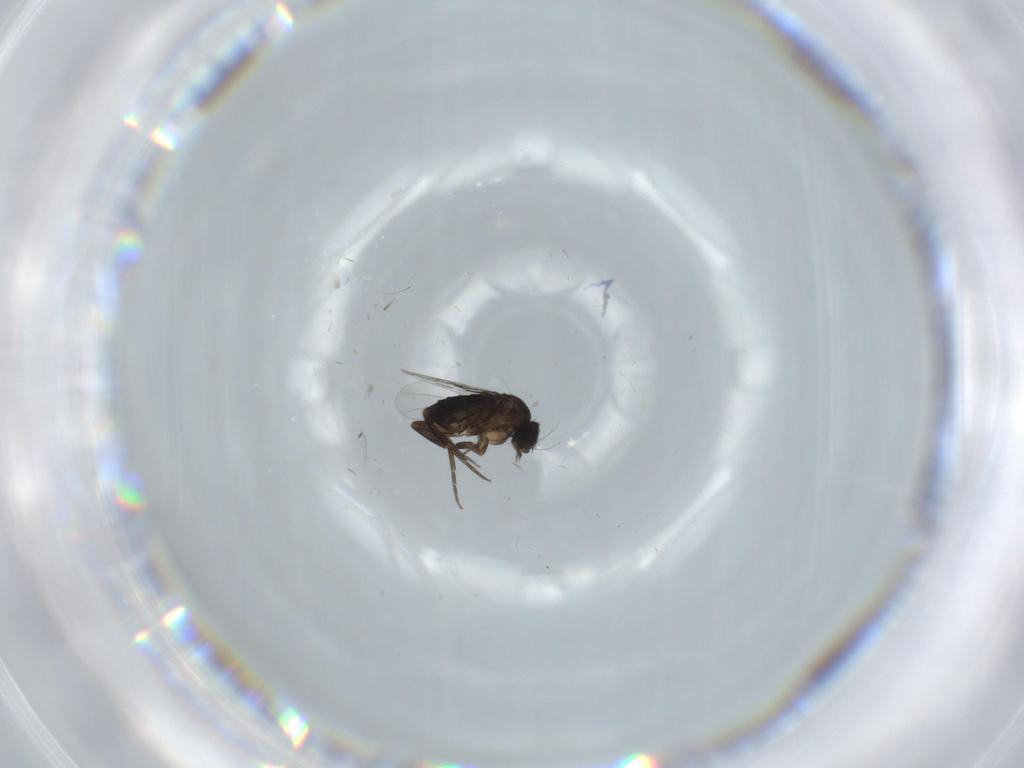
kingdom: Animalia
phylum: Arthropoda
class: Insecta
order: Diptera
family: Phoridae
